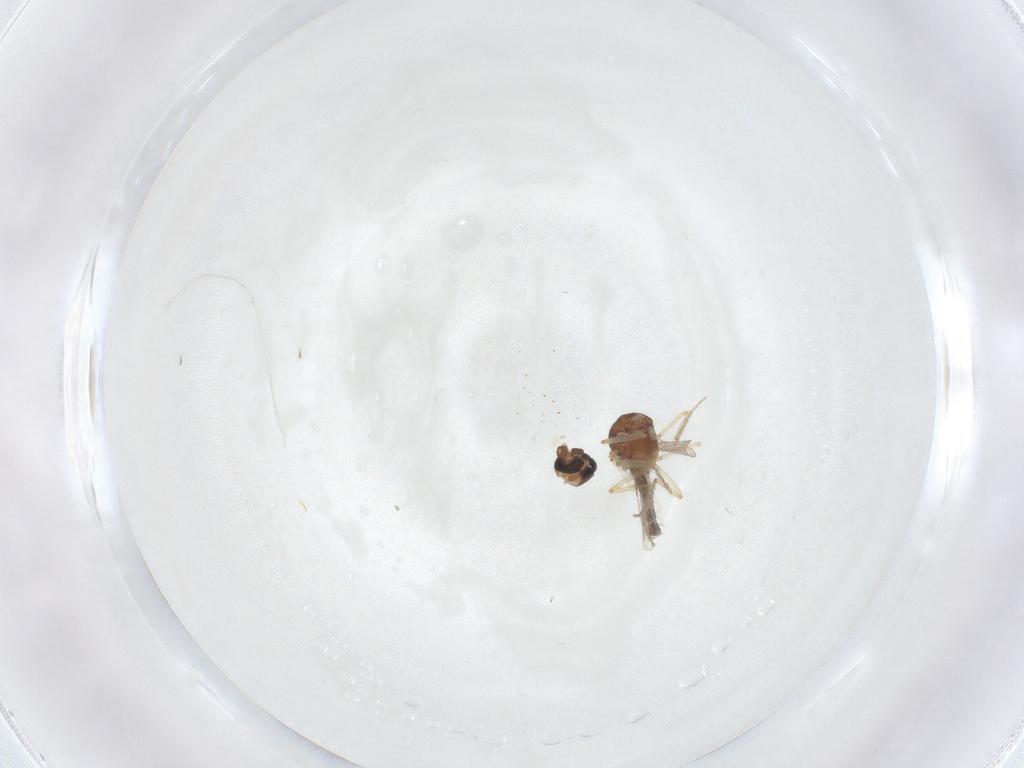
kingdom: Animalia
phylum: Arthropoda
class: Insecta
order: Diptera
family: Ceratopogonidae
